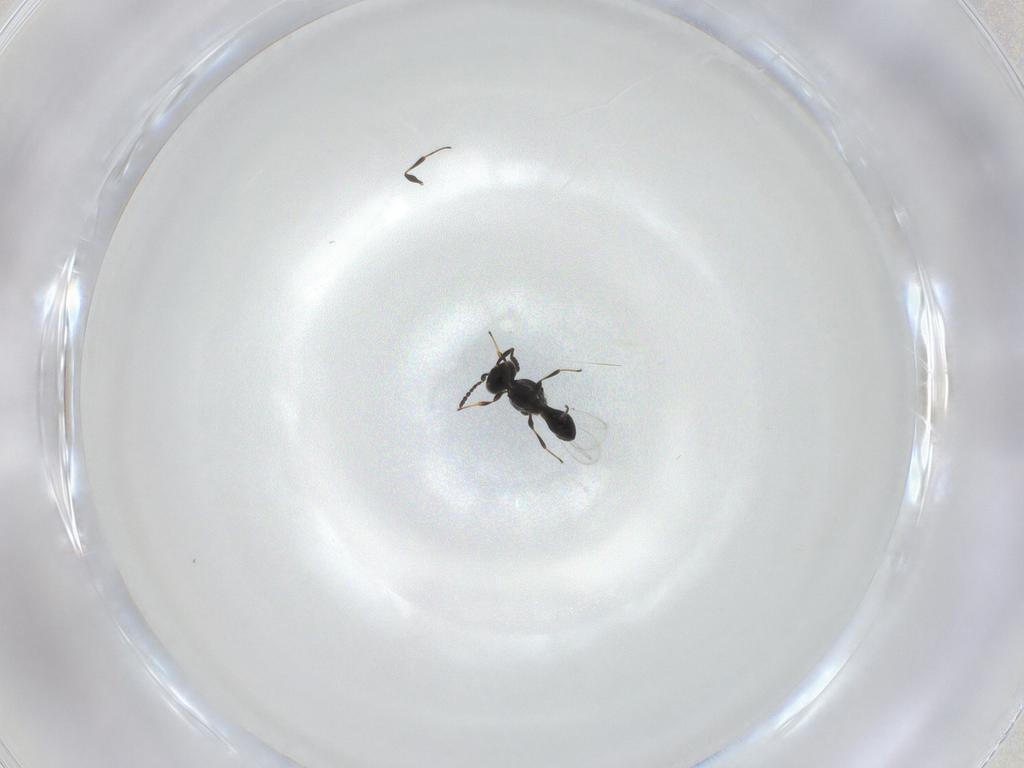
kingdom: Animalia
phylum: Arthropoda
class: Insecta
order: Hymenoptera
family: Platygastridae
